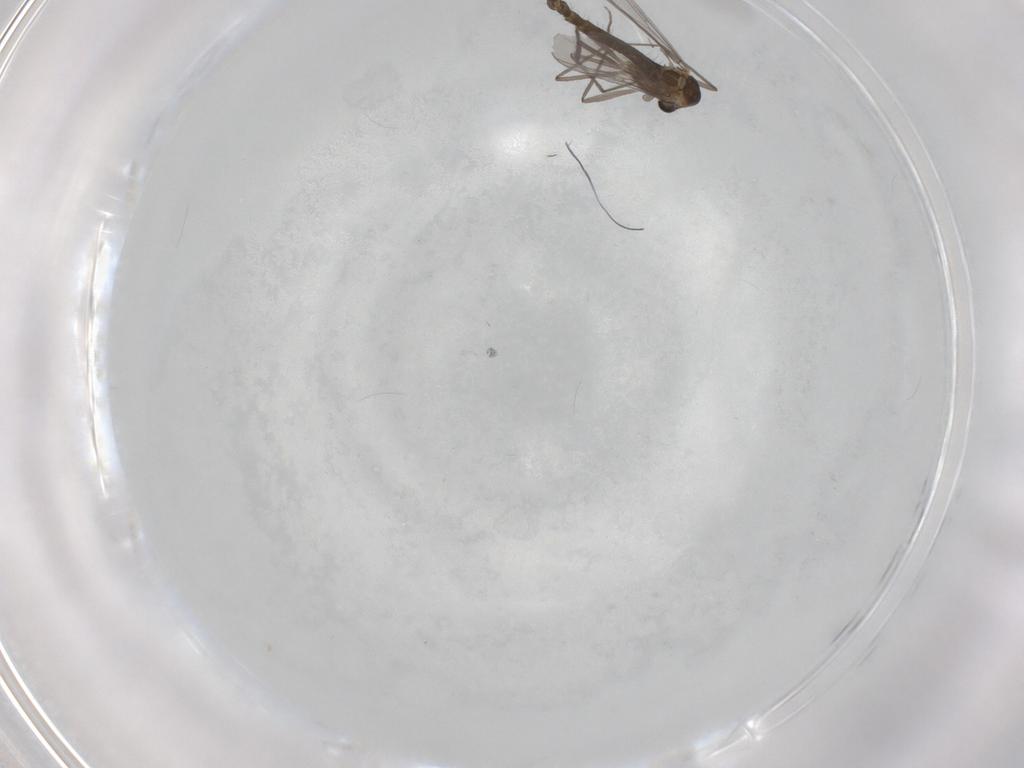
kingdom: Animalia
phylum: Arthropoda
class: Insecta
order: Diptera
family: Chironomidae
